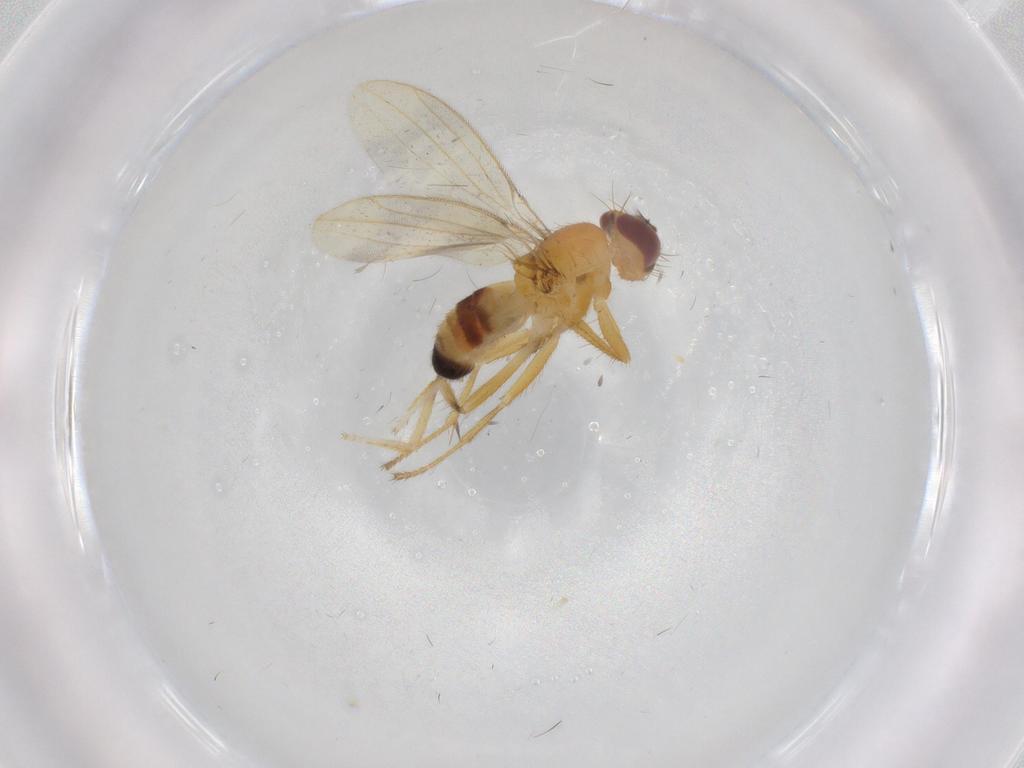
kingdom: Animalia
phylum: Arthropoda
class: Insecta
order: Diptera
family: Periscelididae
